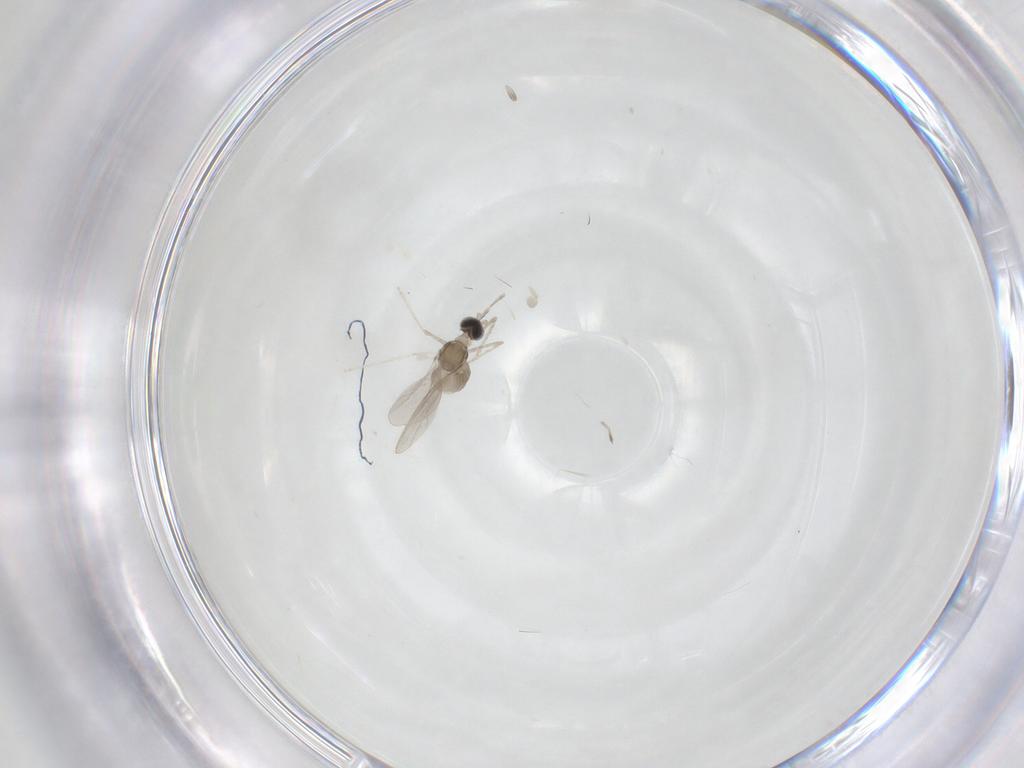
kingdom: Animalia
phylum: Arthropoda
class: Insecta
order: Diptera
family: Cecidomyiidae
